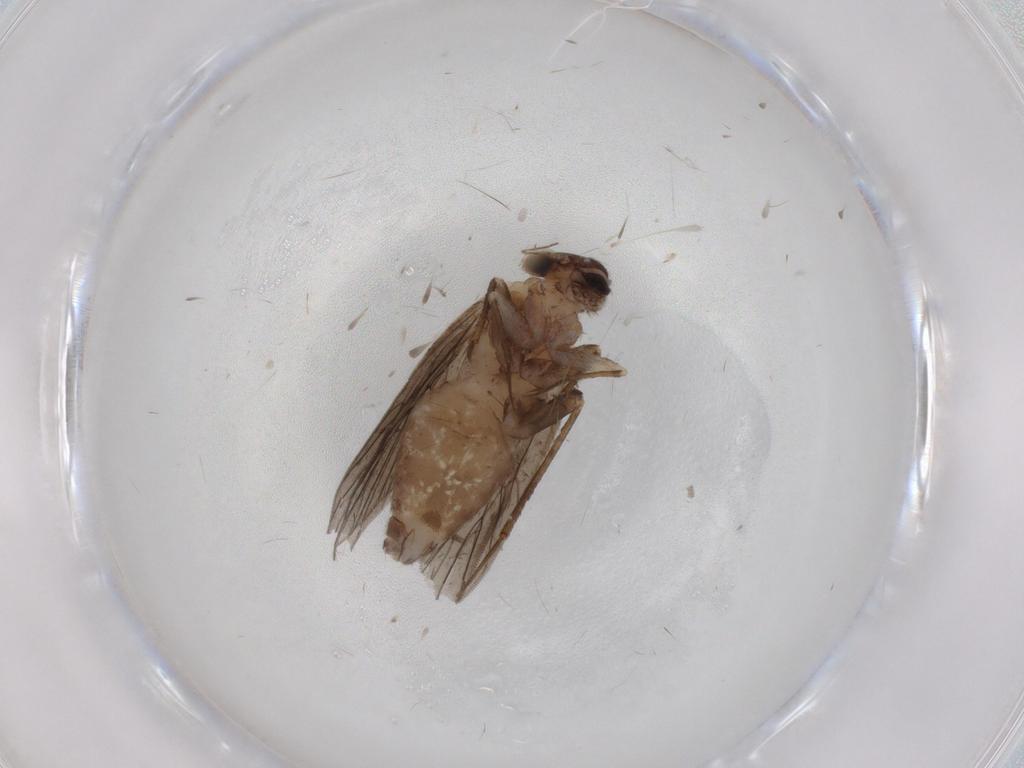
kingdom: Animalia
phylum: Arthropoda
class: Insecta
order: Psocodea
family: Lepidopsocidae
